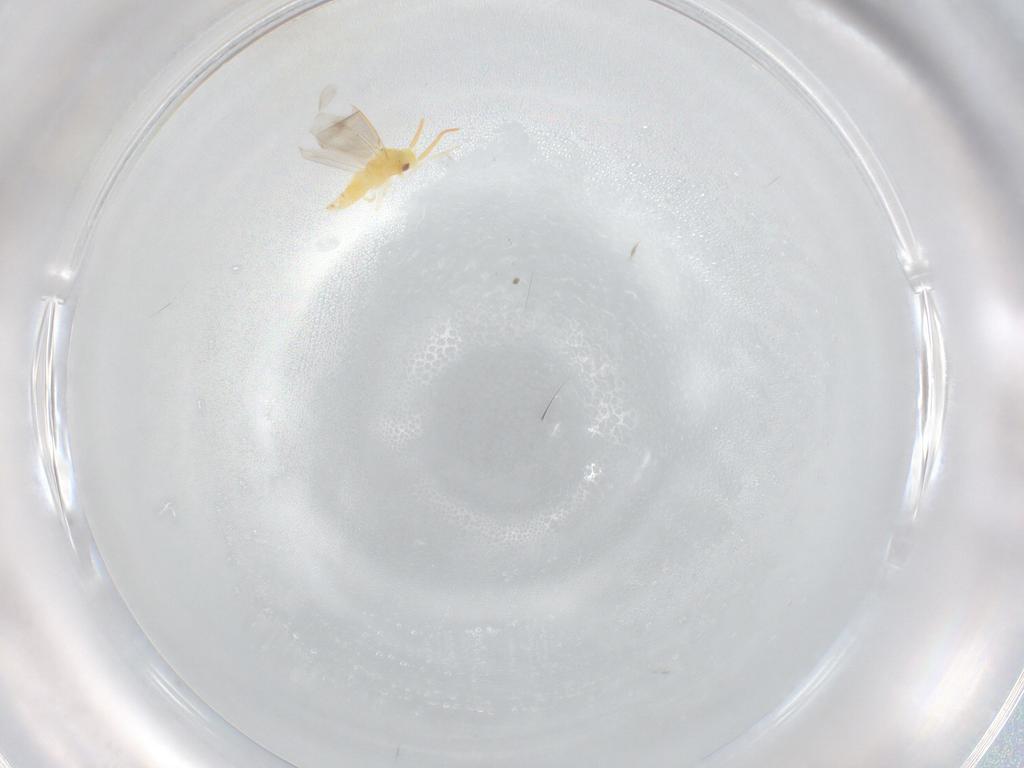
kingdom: Animalia
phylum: Arthropoda
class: Insecta
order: Hemiptera
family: Aleyrodidae
